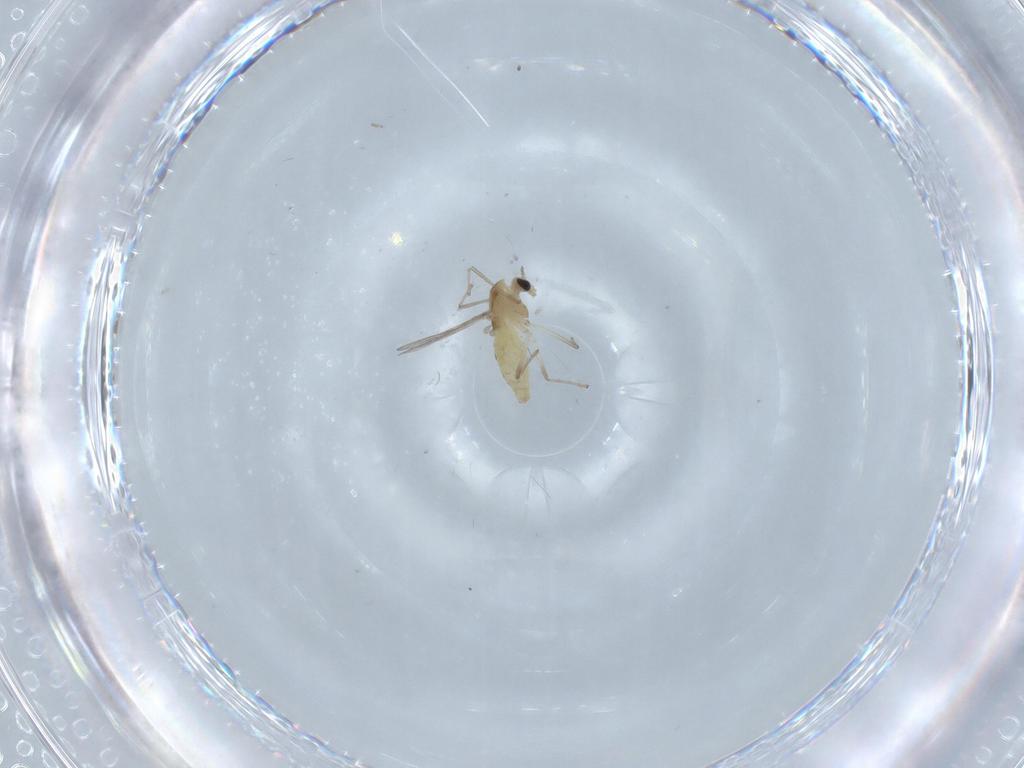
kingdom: Animalia
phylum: Arthropoda
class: Insecta
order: Diptera
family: Chironomidae
